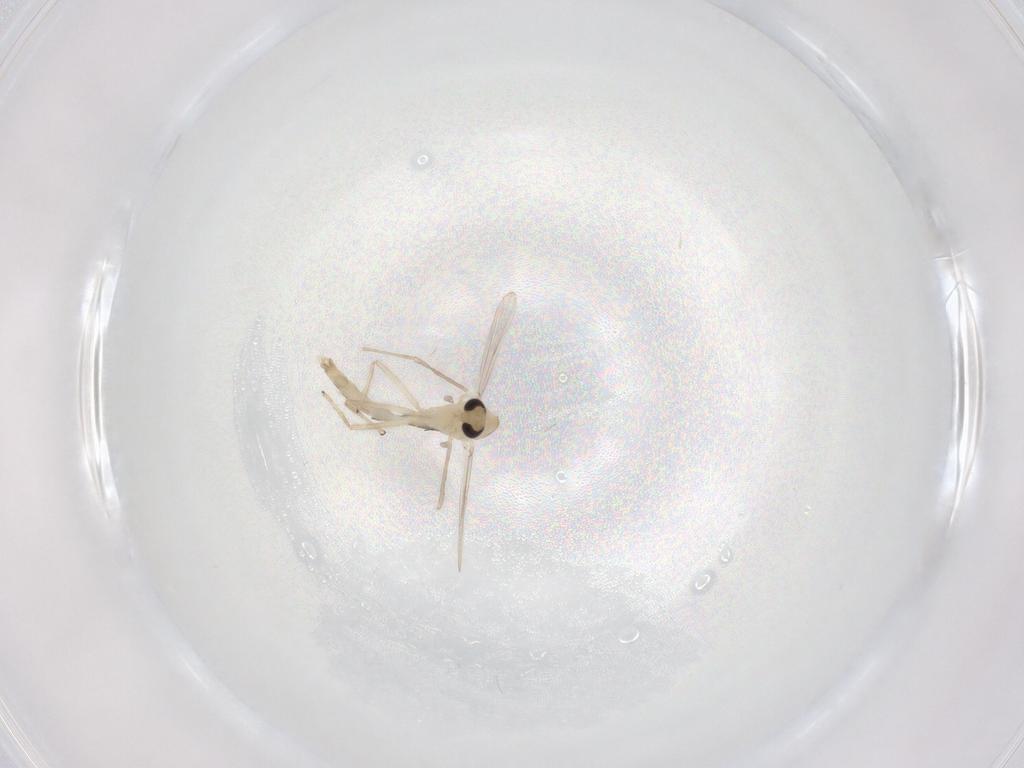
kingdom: Animalia
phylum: Arthropoda
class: Insecta
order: Diptera
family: Chironomidae
